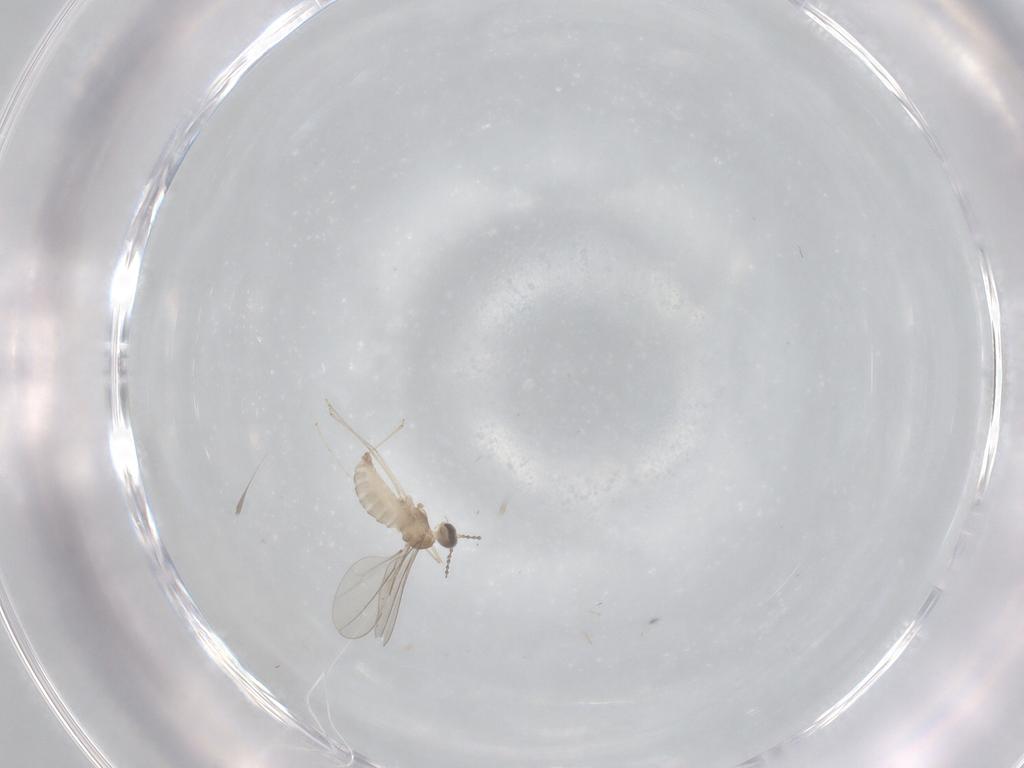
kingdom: Animalia
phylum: Arthropoda
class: Insecta
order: Diptera
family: Cecidomyiidae
